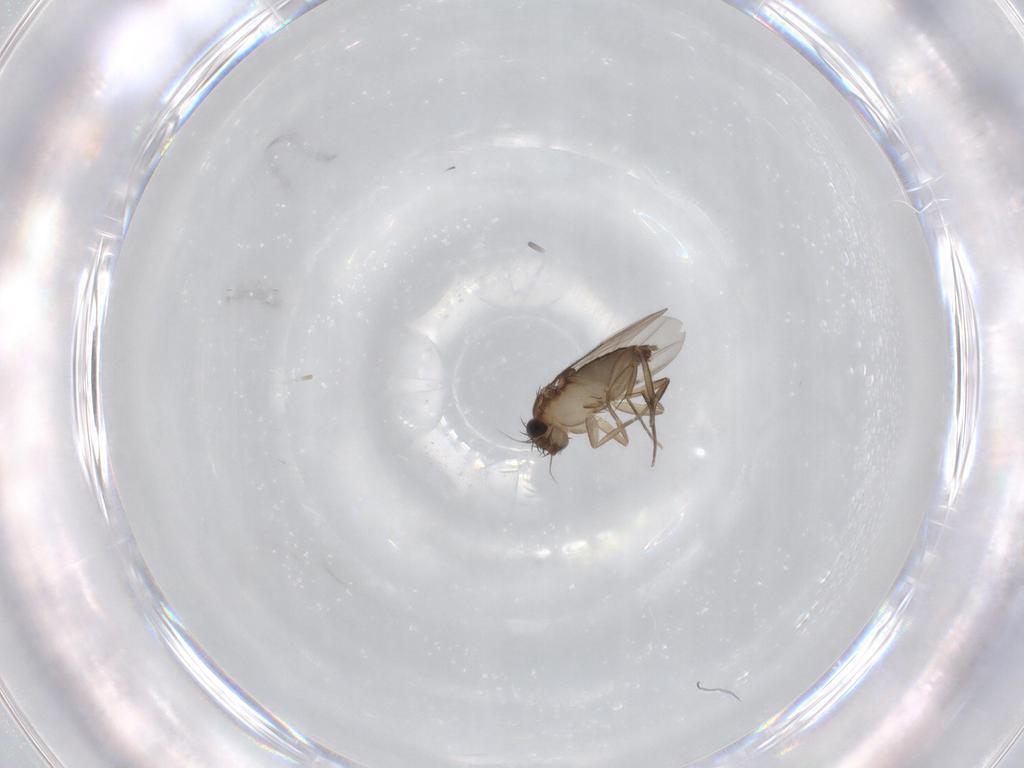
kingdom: Animalia
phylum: Arthropoda
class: Insecta
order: Diptera
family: Phoridae
